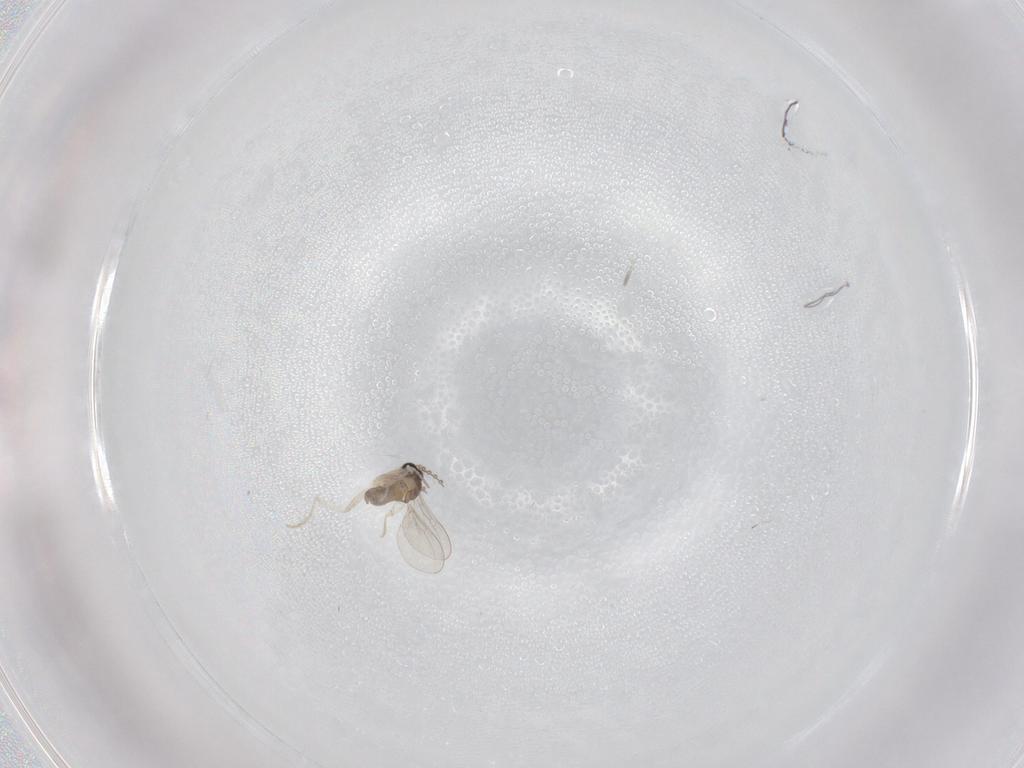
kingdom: Animalia
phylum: Arthropoda
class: Insecta
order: Diptera
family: Cecidomyiidae
